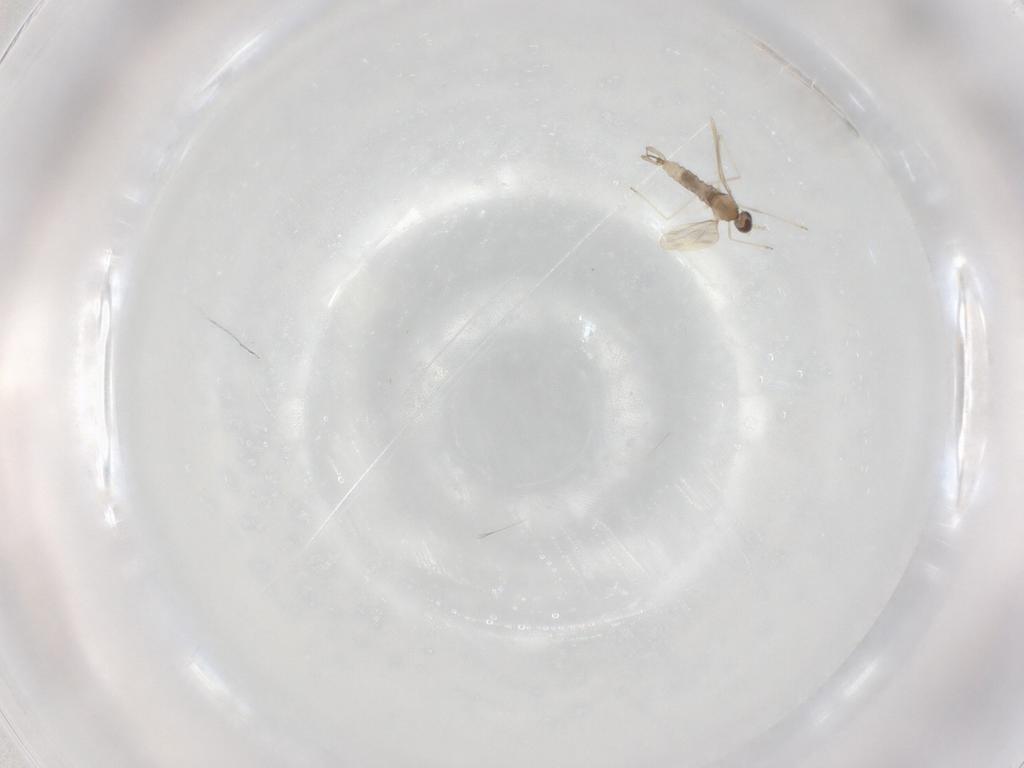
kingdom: Animalia
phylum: Arthropoda
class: Insecta
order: Diptera
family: Cecidomyiidae
